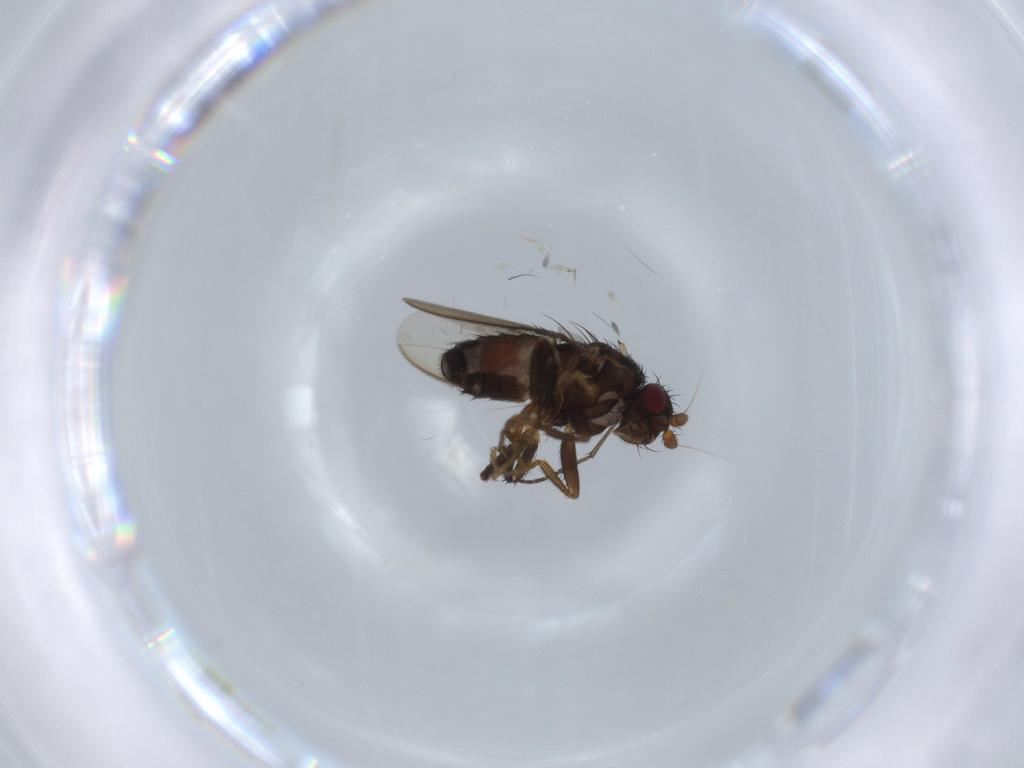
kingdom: Animalia
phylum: Arthropoda
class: Insecta
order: Diptera
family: Sphaeroceridae
